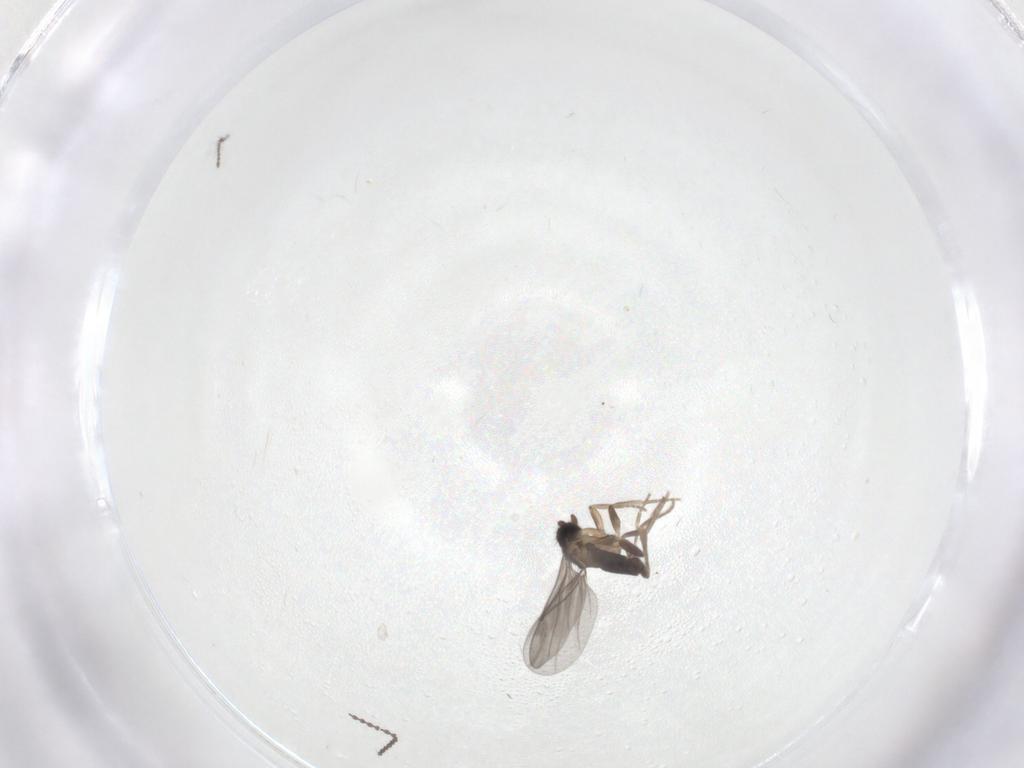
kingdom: Animalia
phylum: Arthropoda
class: Insecta
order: Diptera
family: Cecidomyiidae
